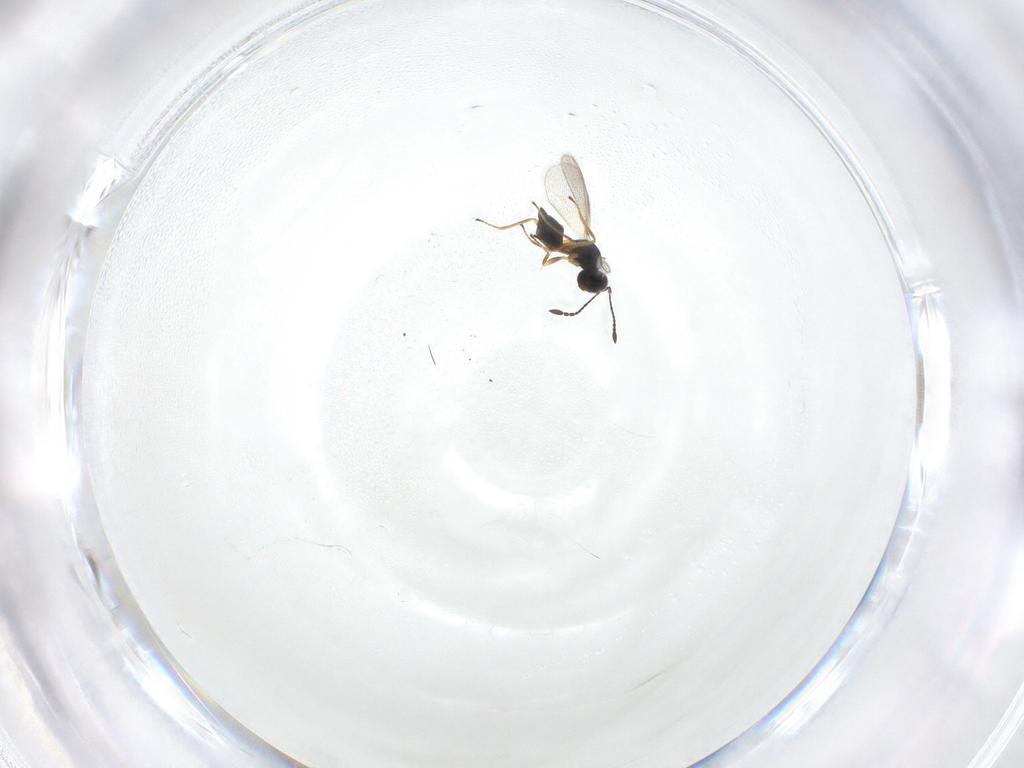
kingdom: Animalia
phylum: Arthropoda
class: Insecta
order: Hymenoptera
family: Mymaridae
